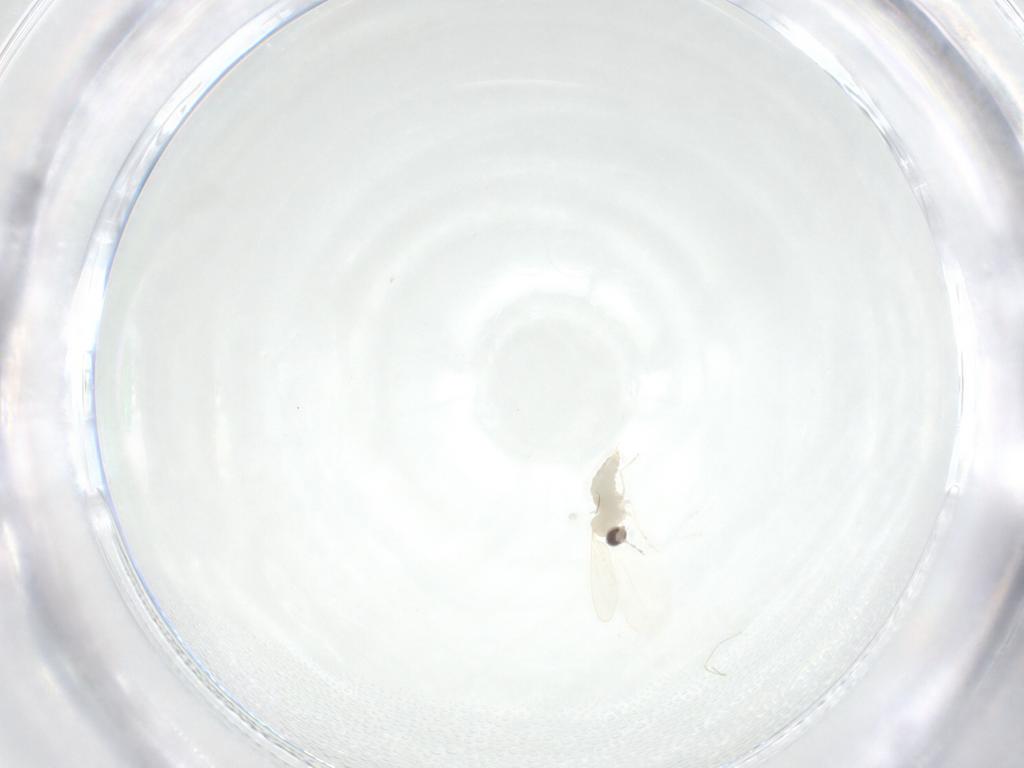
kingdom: Animalia
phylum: Arthropoda
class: Insecta
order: Diptera
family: Cecidomyiidae
